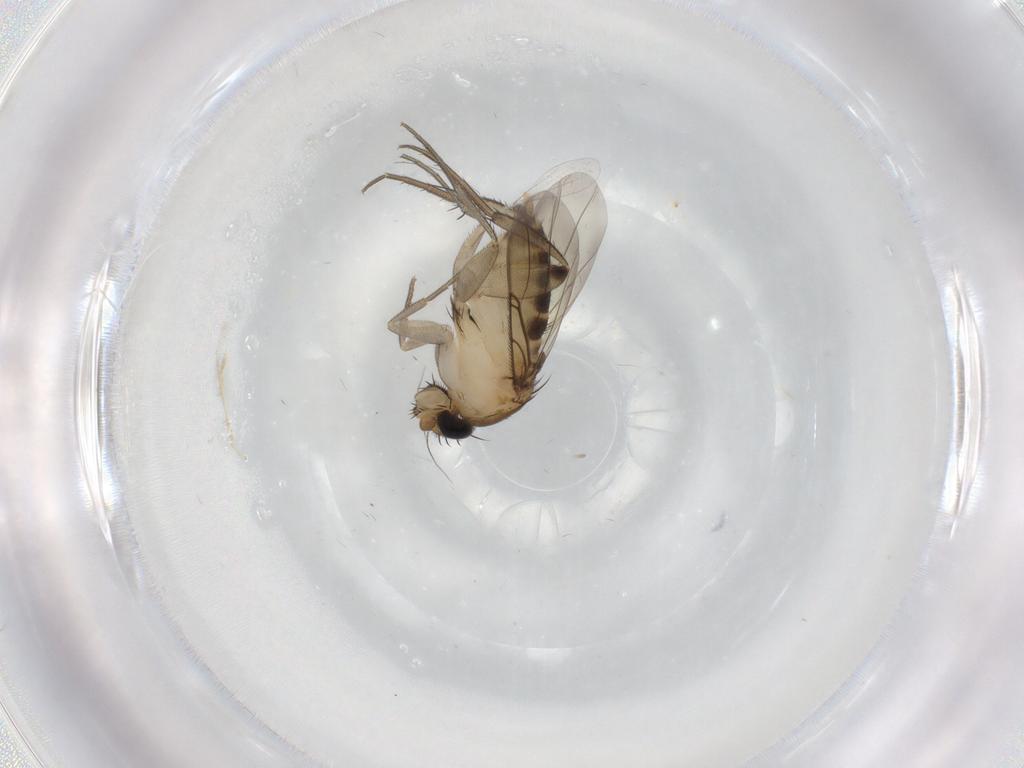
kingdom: Animalia
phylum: Arthropoda
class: Insecta
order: Diptera
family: Phoridae
